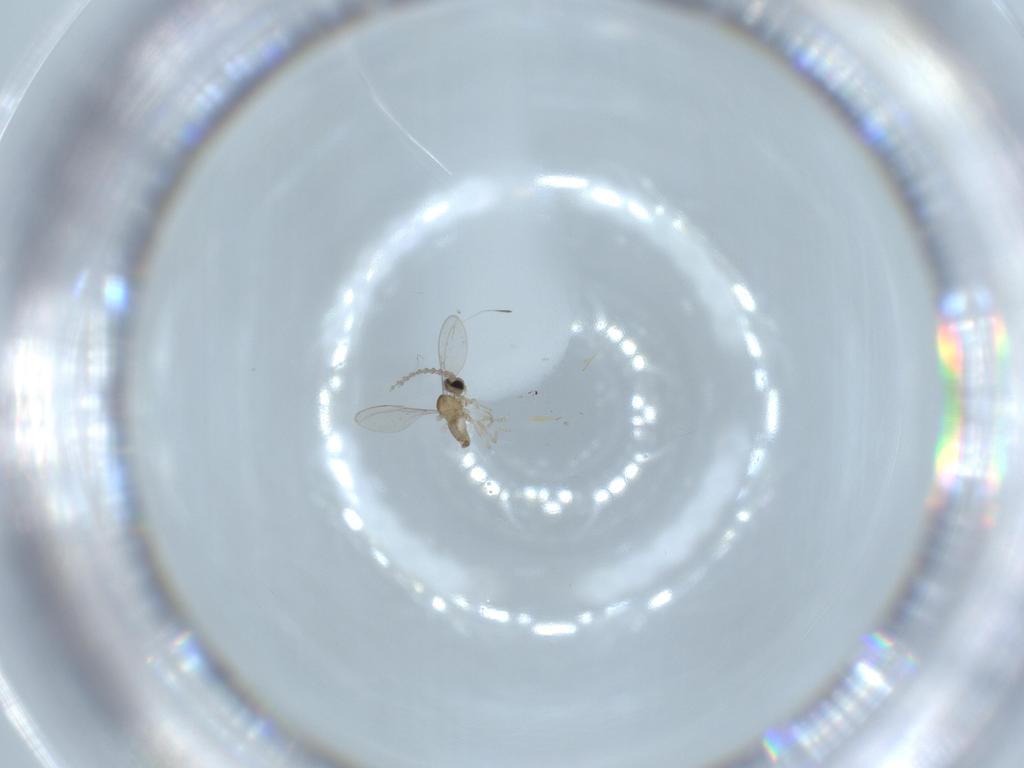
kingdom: Animalia
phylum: Arthropoda
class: Insecta
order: Diptera
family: Cecidomyiidae
